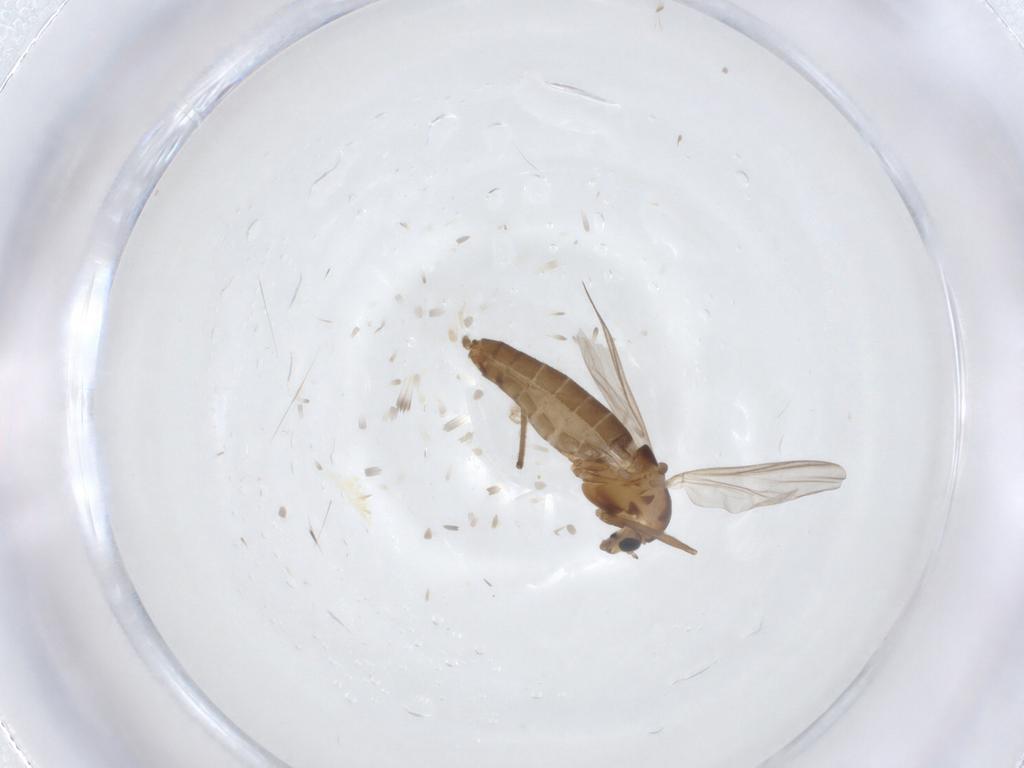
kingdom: Animalia
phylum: Arthropoda
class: Insecta
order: Diptera
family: Chironomidae
